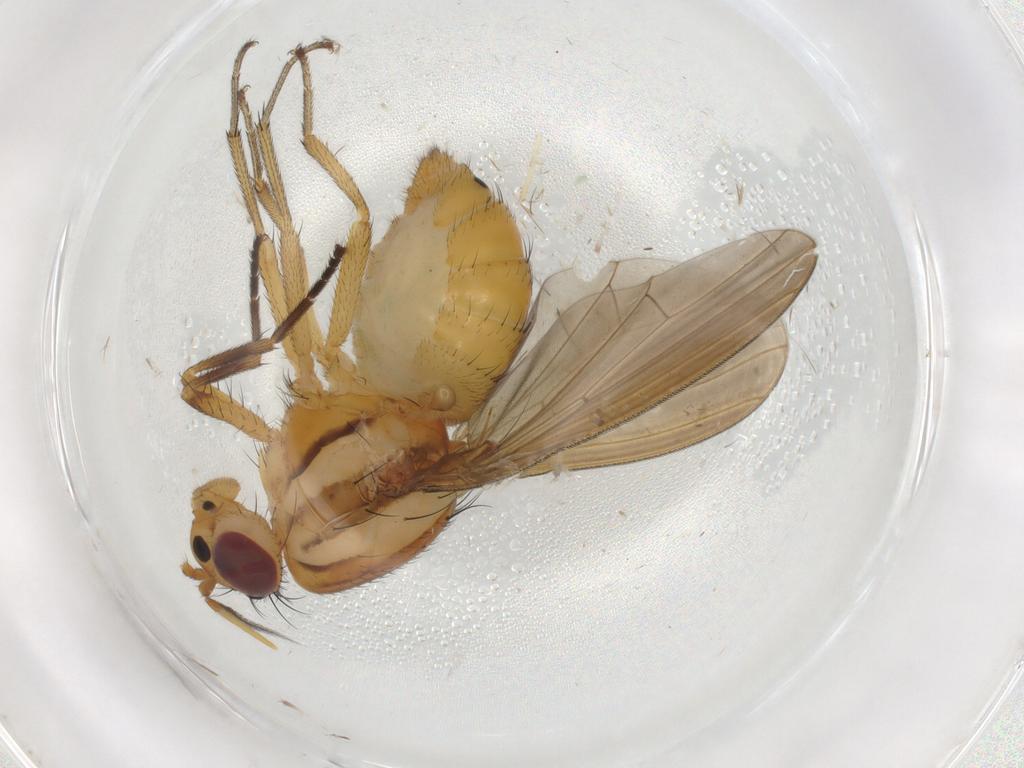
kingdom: Animalia
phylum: Arthropoda
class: Insecta
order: Diptera
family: Lauxaniidae
